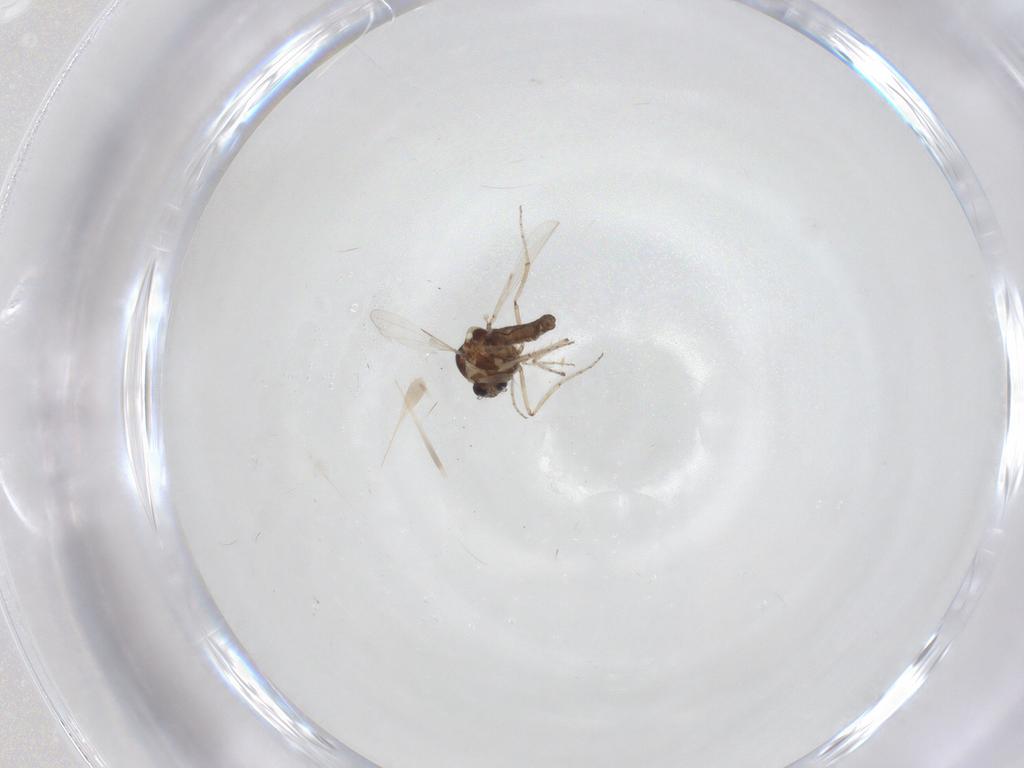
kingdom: Animalia
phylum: Arthropoda
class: Insecta
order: Diptera
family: Ceratopogonidae
